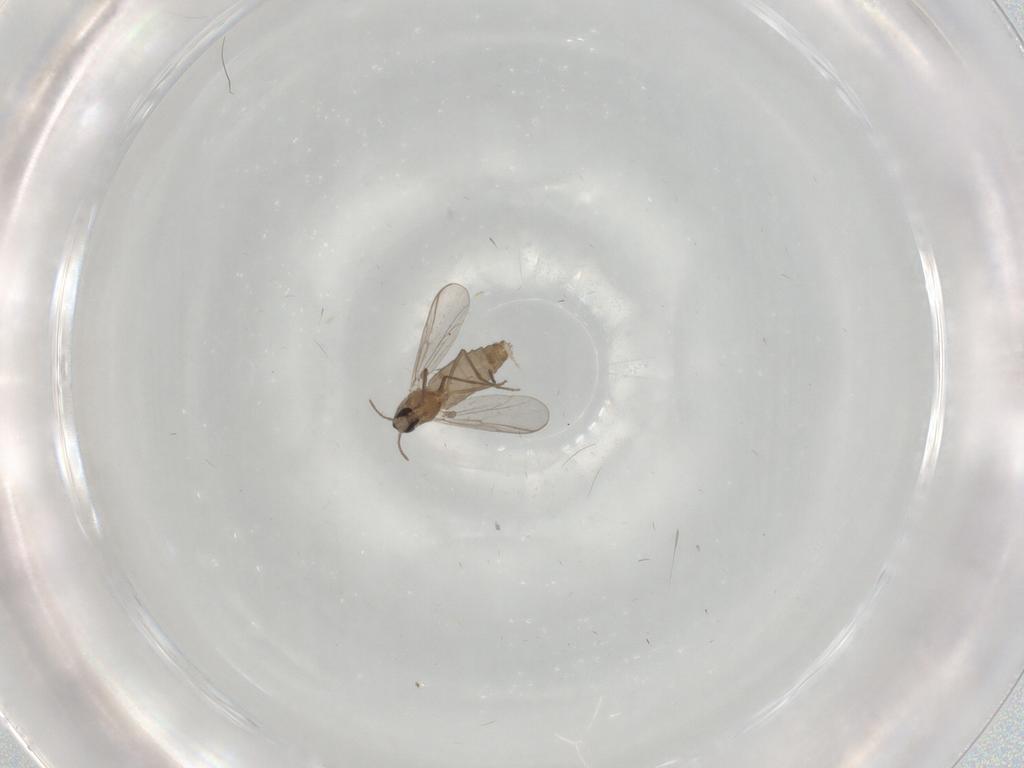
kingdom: Animalia
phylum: Arthropoda
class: Insecta
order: Diptera
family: Chironomidae
